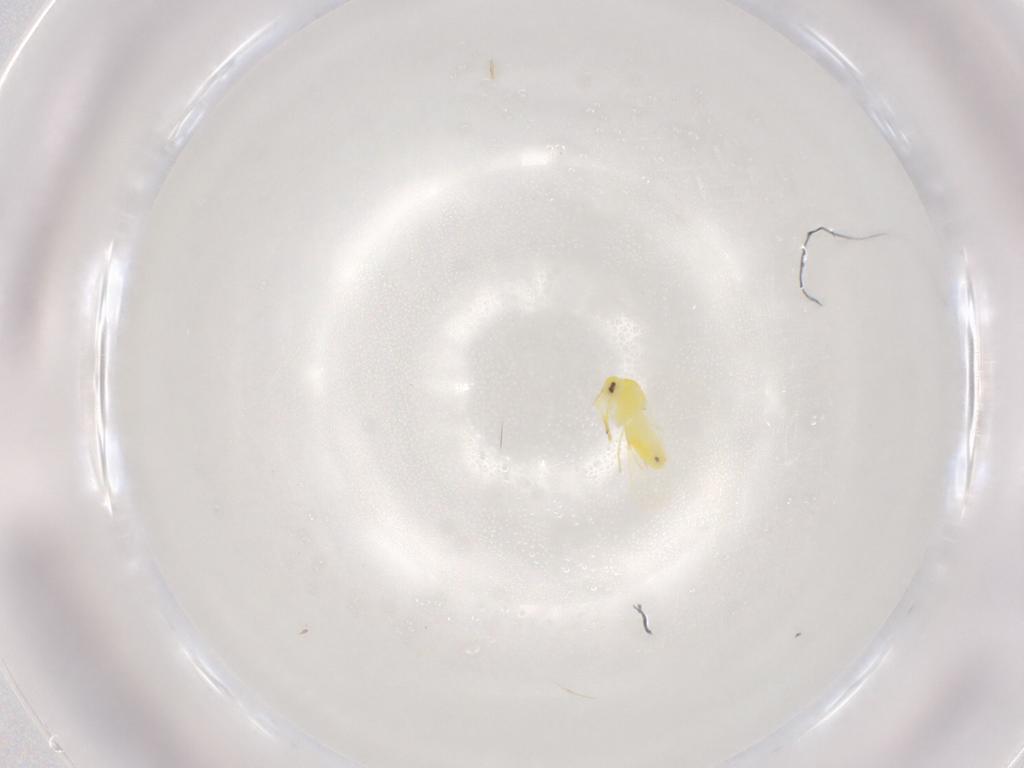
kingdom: Animalia
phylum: Arthropoda
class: Insecta
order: Hemiptera
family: Aleyrodidae
